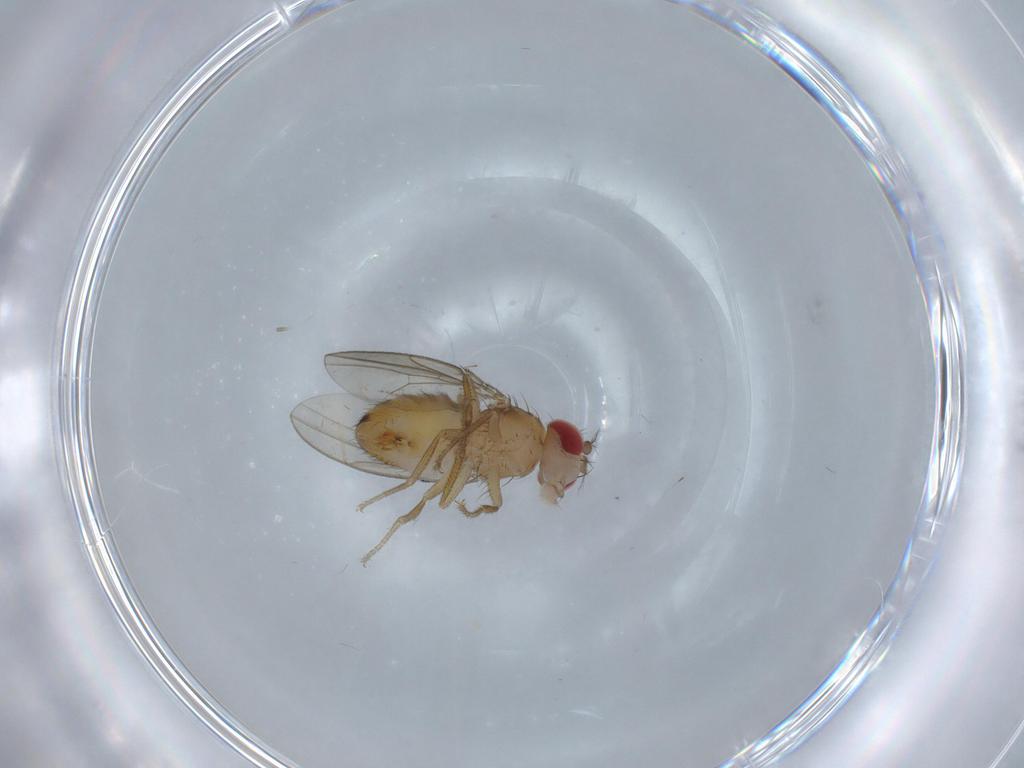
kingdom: Animalia
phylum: Arthropoda
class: Insecta
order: Diptera
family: Drosophilidae
